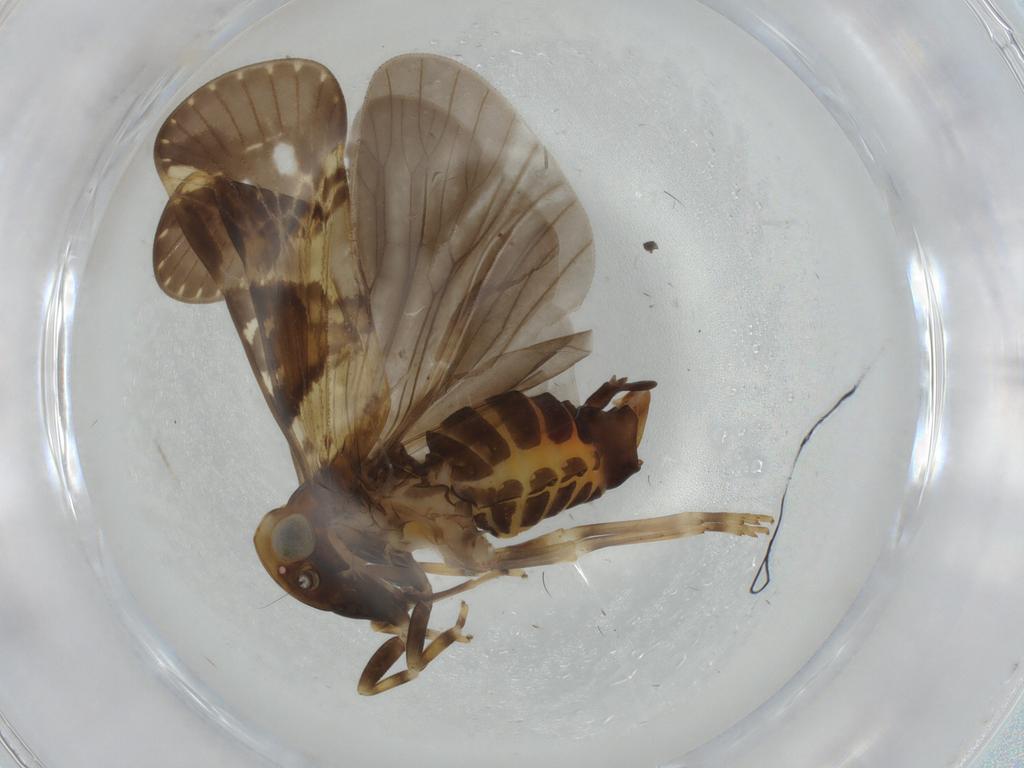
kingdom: Animalia
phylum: Arthropoda
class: Insecta
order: Hemiptera
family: Cixiidae
